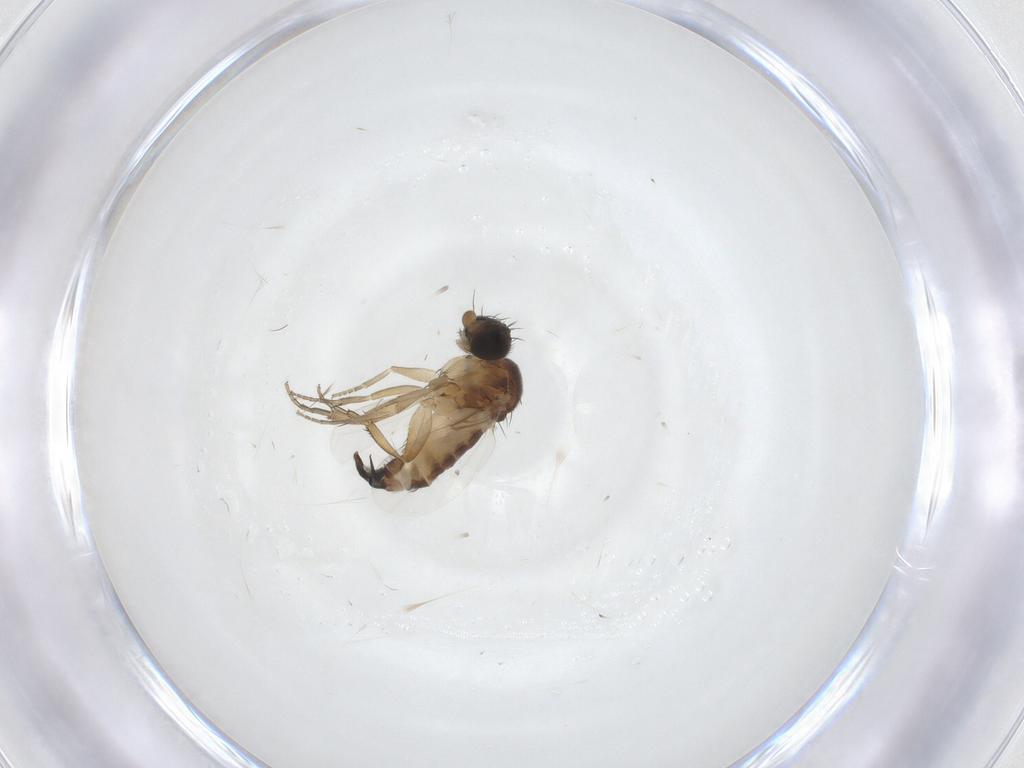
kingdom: Animalia
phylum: Arthropoda
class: Insecta
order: Diptera
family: Phoridae
